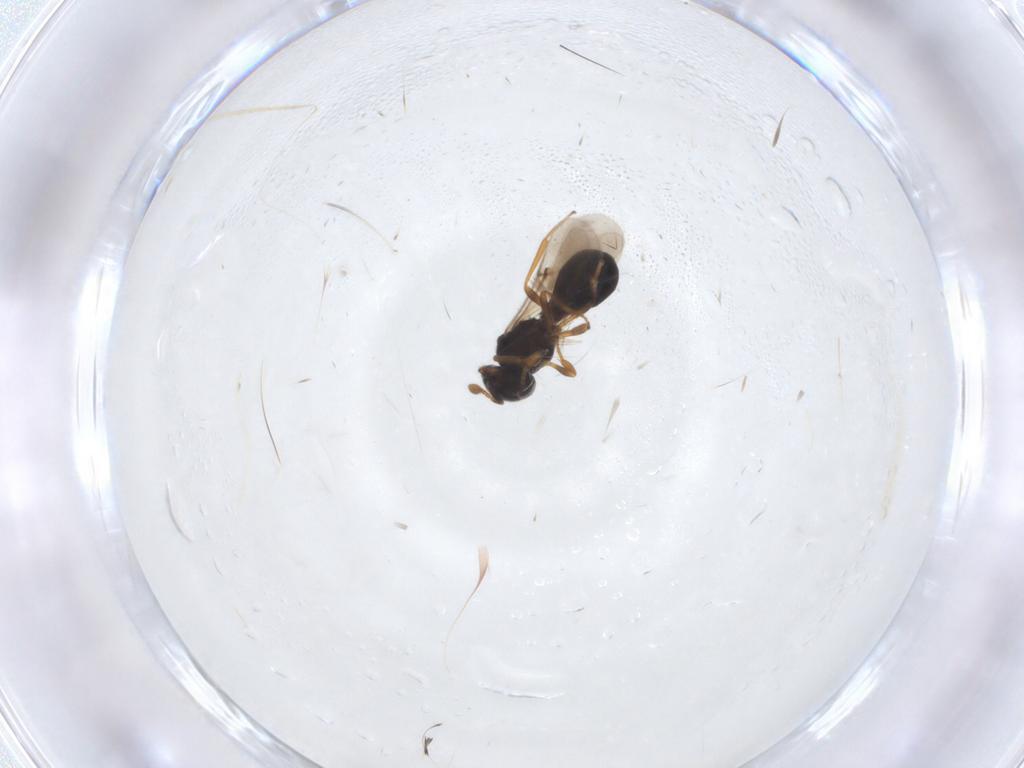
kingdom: Animalia
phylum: Arthropoda
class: Insecta
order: Hymenoptera
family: Scelionidae
